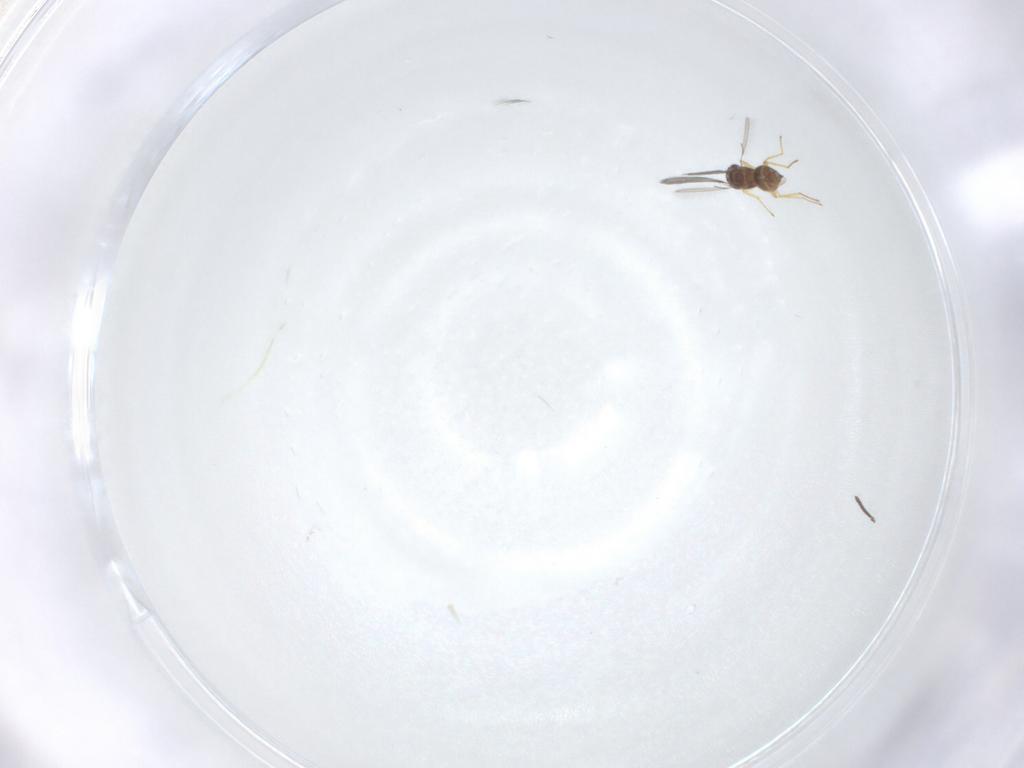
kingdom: Animalia
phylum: Arthropoda
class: Insecta
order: Hymenoptera
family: Mymaridae
